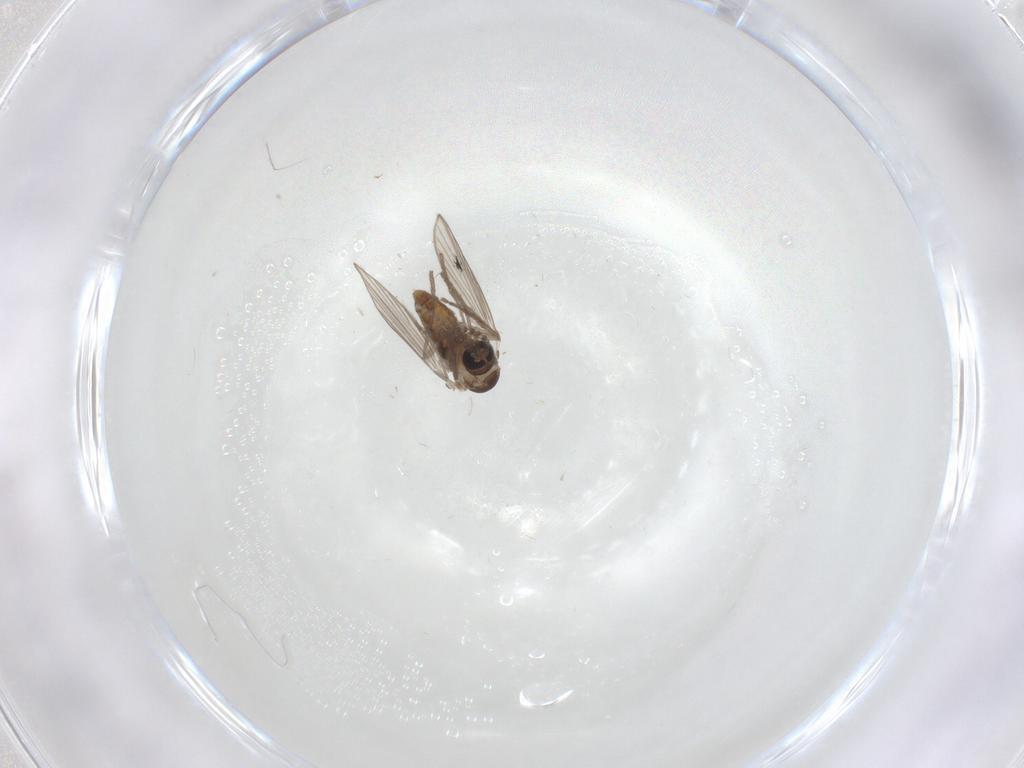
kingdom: Animalia
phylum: Arthropoda
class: Insecta
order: Diptera
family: Psychodidae
